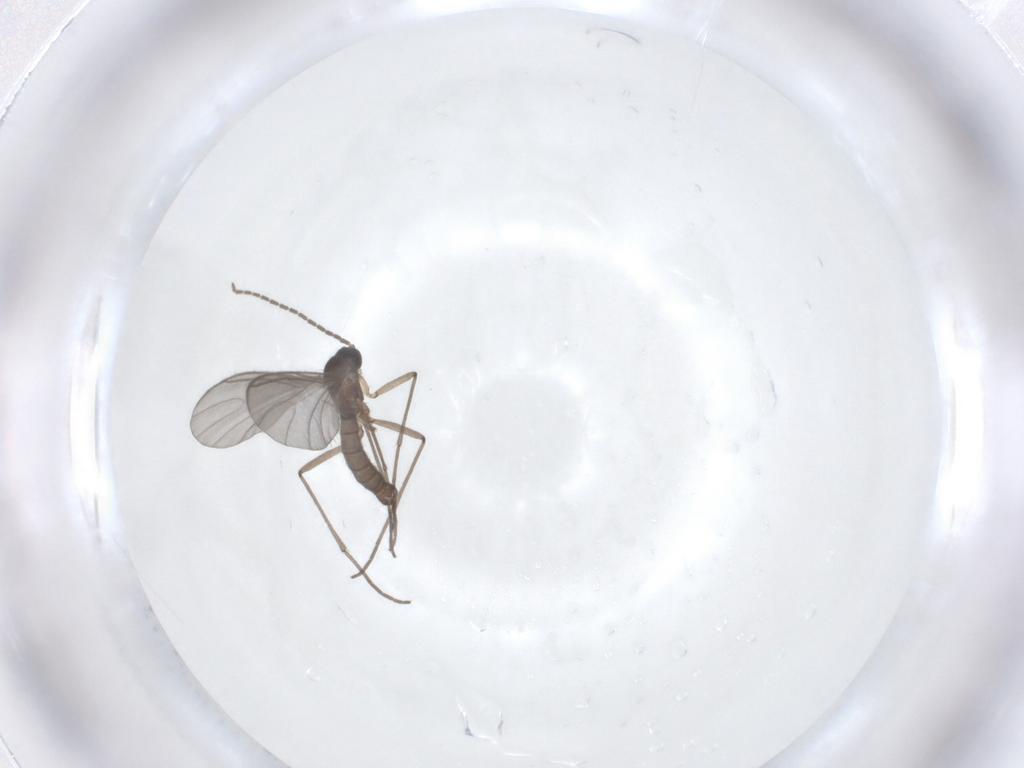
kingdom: Animalia
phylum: Arthropoda
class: Insecta
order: Diptera
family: Sciaridae
